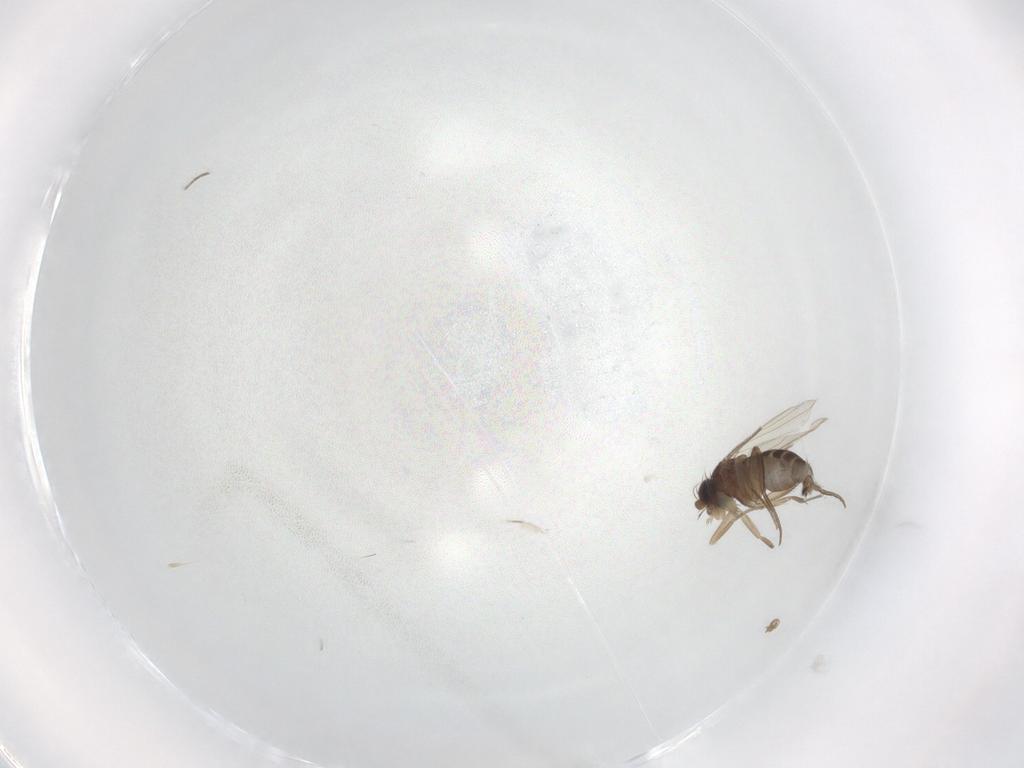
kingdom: Animalia
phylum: Arthropoda
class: Insecta
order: Diptera
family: Phoridae
